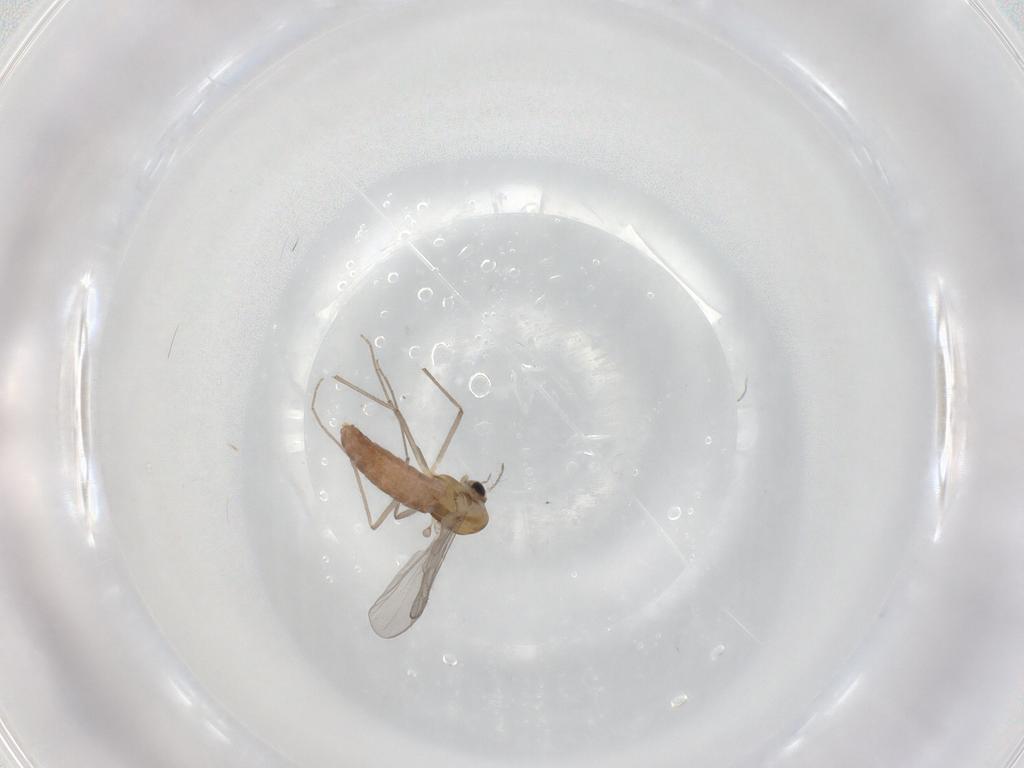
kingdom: Animalia
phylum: Arthropoda
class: Insecta
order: Diptera
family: Chironomidae
